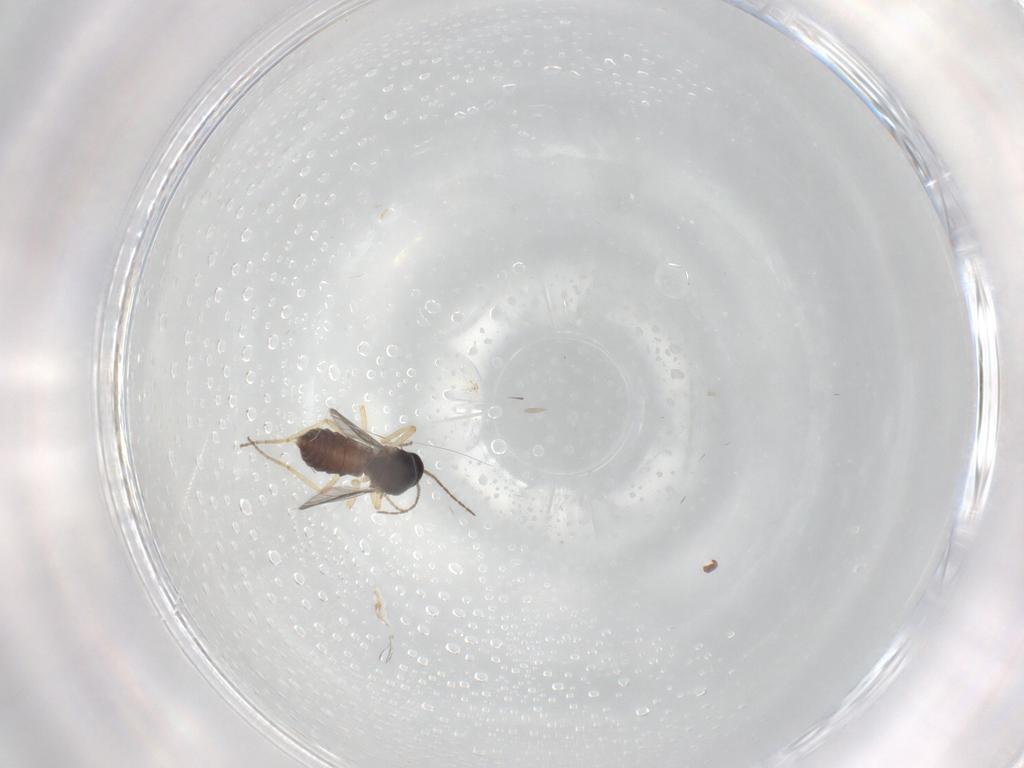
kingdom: Animalia
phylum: Arthropoda
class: Insecta
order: Diptera
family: Ceratopogonidae
